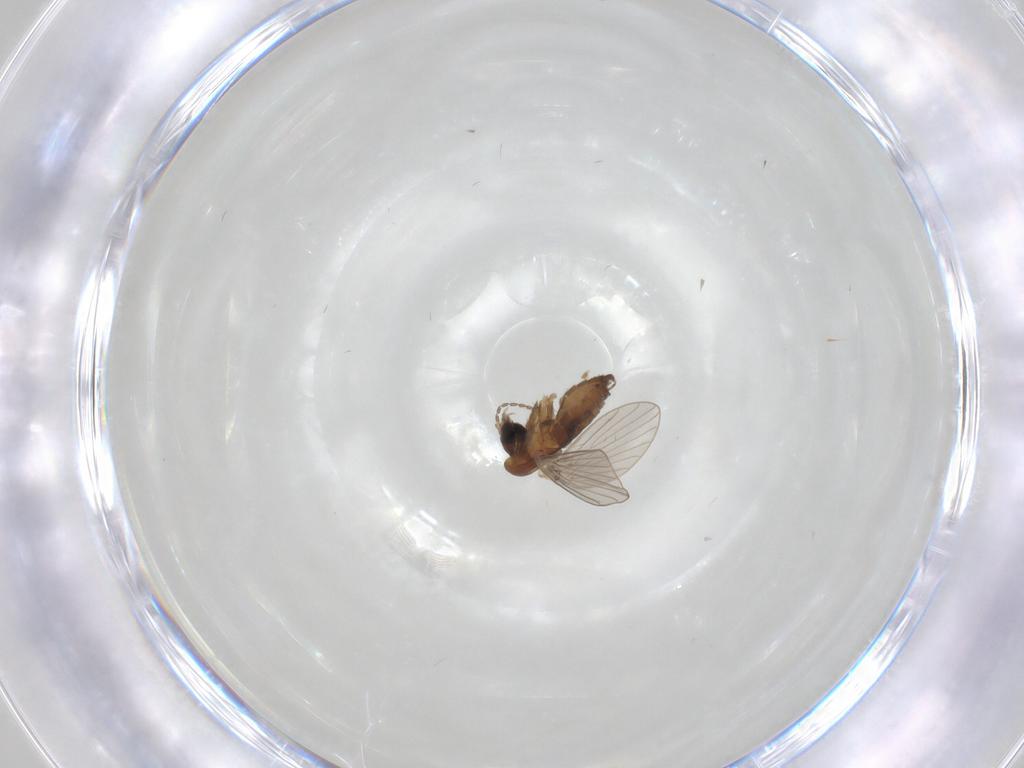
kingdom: Animalia
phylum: Arthropoda
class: Insecta
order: Diptera
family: Muscidae
